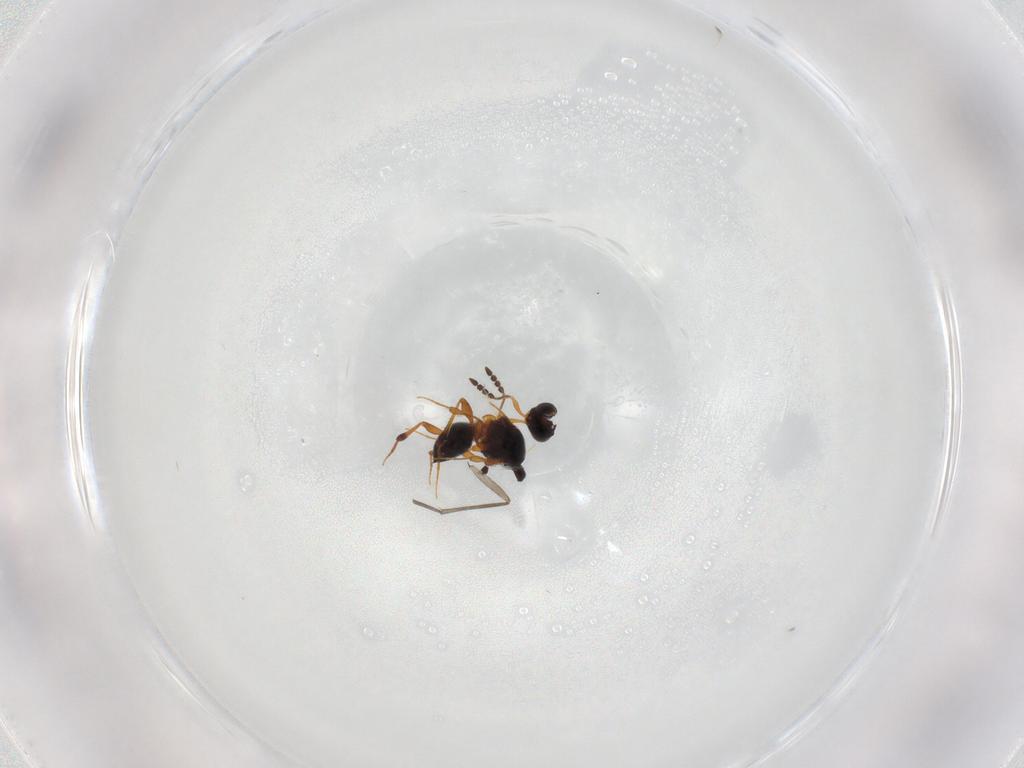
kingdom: Animalia
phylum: Arthropoda
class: Insecta
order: Hymenoptera
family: Platygastridae
